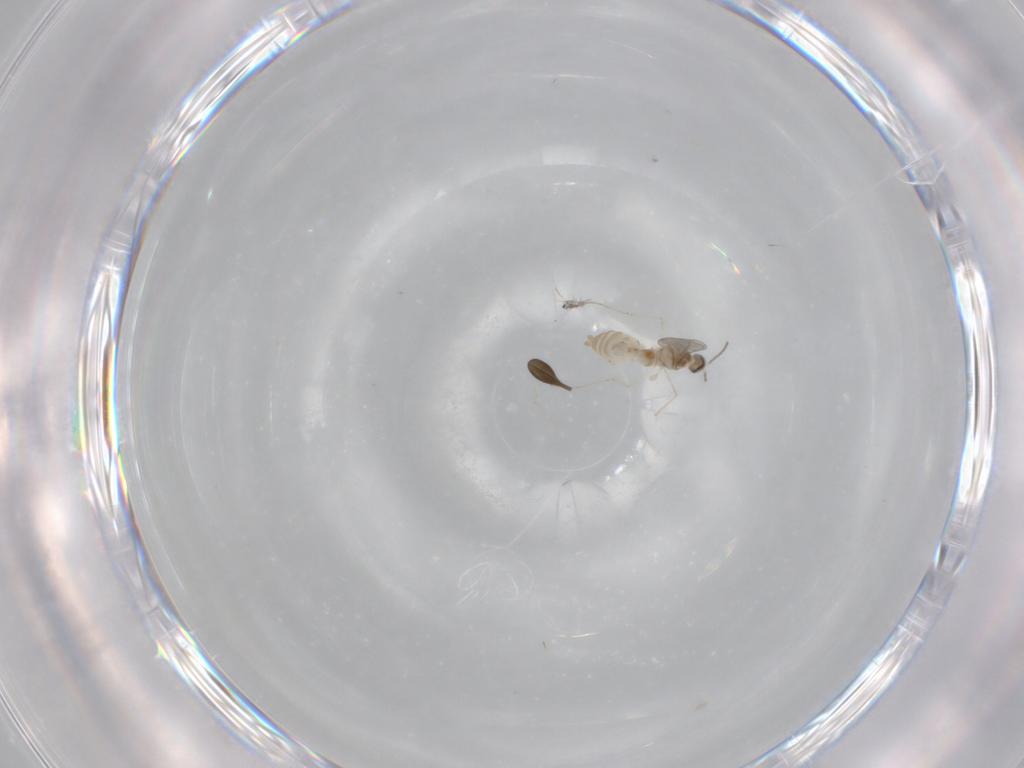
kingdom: Animalia
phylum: Arthropoda
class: Insecta
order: Diptera
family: Cecidomyiidae
